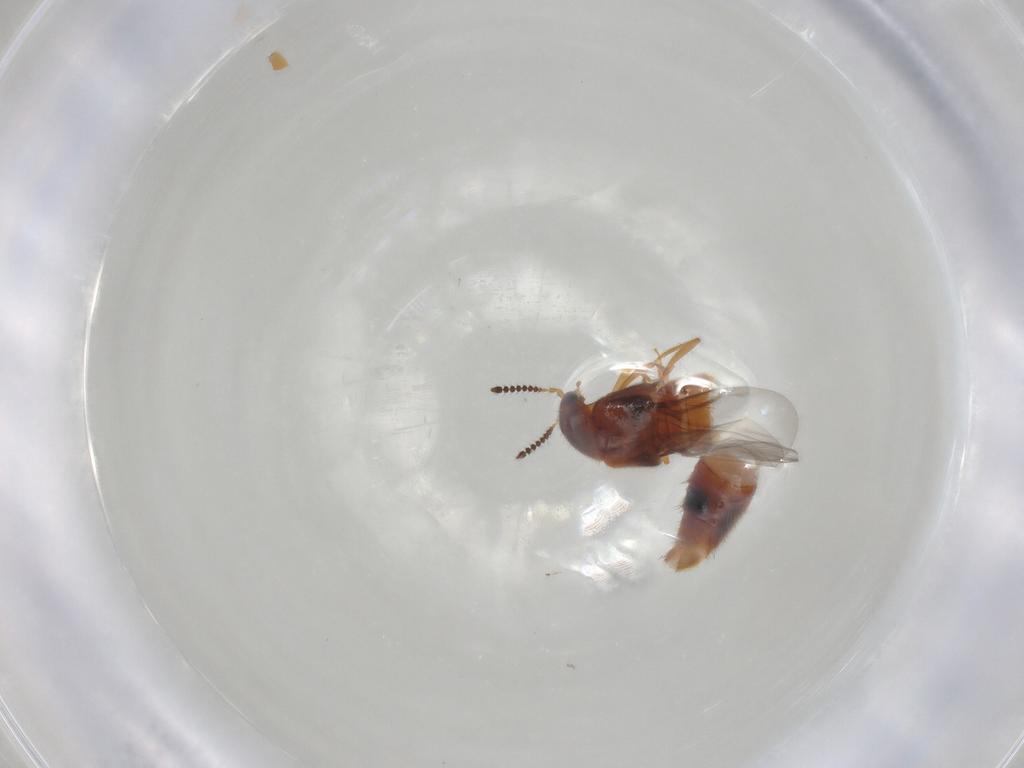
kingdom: Animalia
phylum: Arthropoda
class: Insecta
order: Coleoptera
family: Staphylinidae
